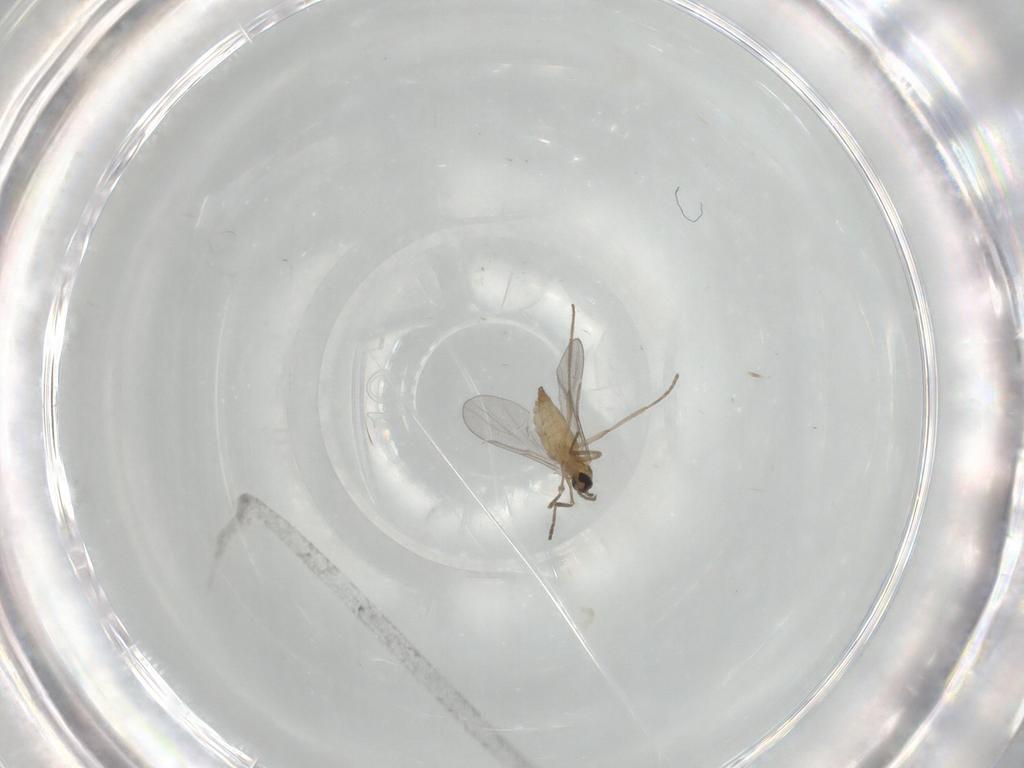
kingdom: Animalia
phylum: Arthropoda
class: Insecta
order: Diptera
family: Cecidomyiidae
